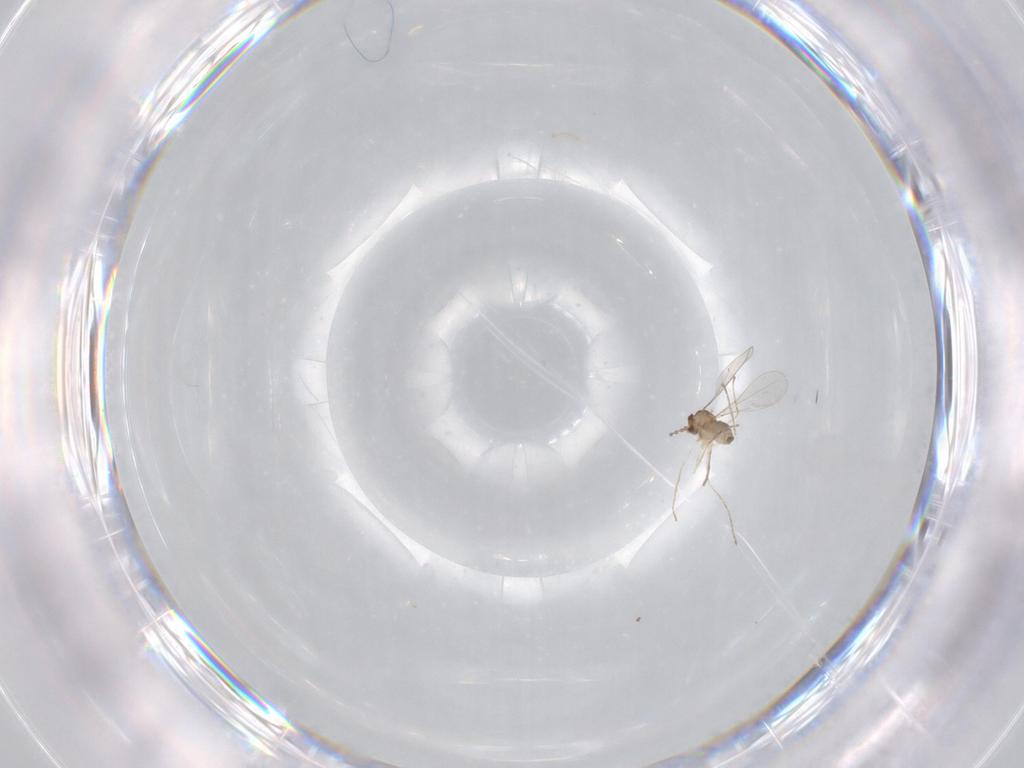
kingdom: Animalia
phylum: Arthropoda
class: Insecta
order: Diptera
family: Cecidomyiidae
